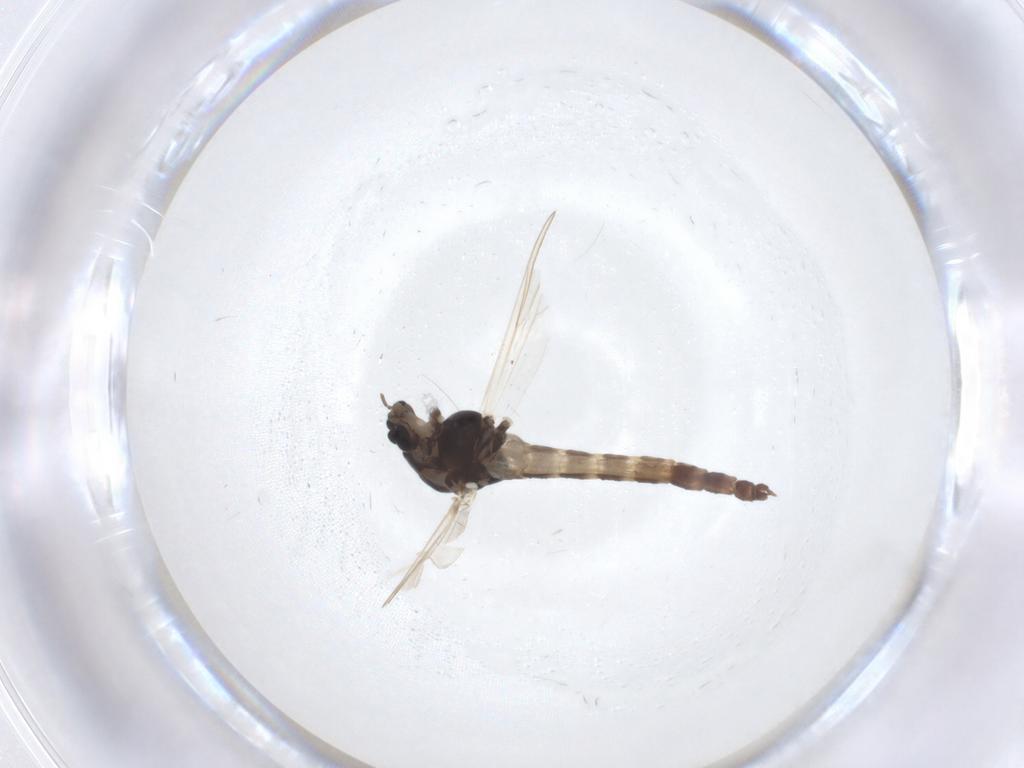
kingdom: Animalia
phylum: Arthropoda
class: Insecta
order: Diptera
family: Chironomidae
